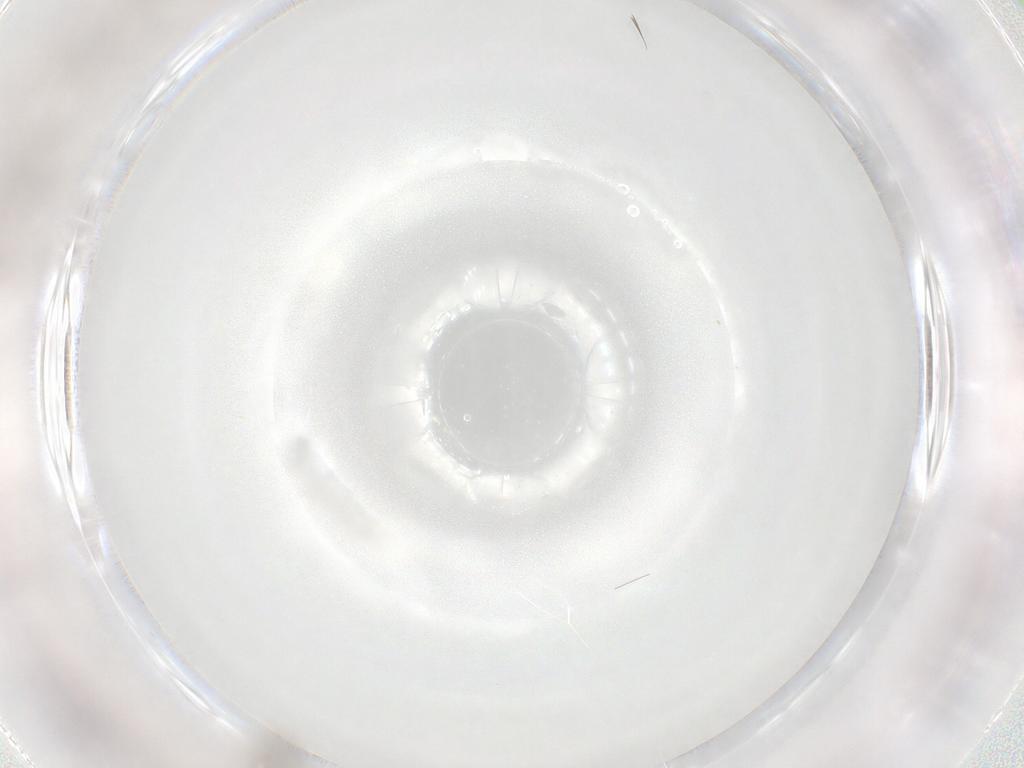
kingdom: Animalia
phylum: Arthropoda
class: Insecta
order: Diptera
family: Cecidomyiidae
